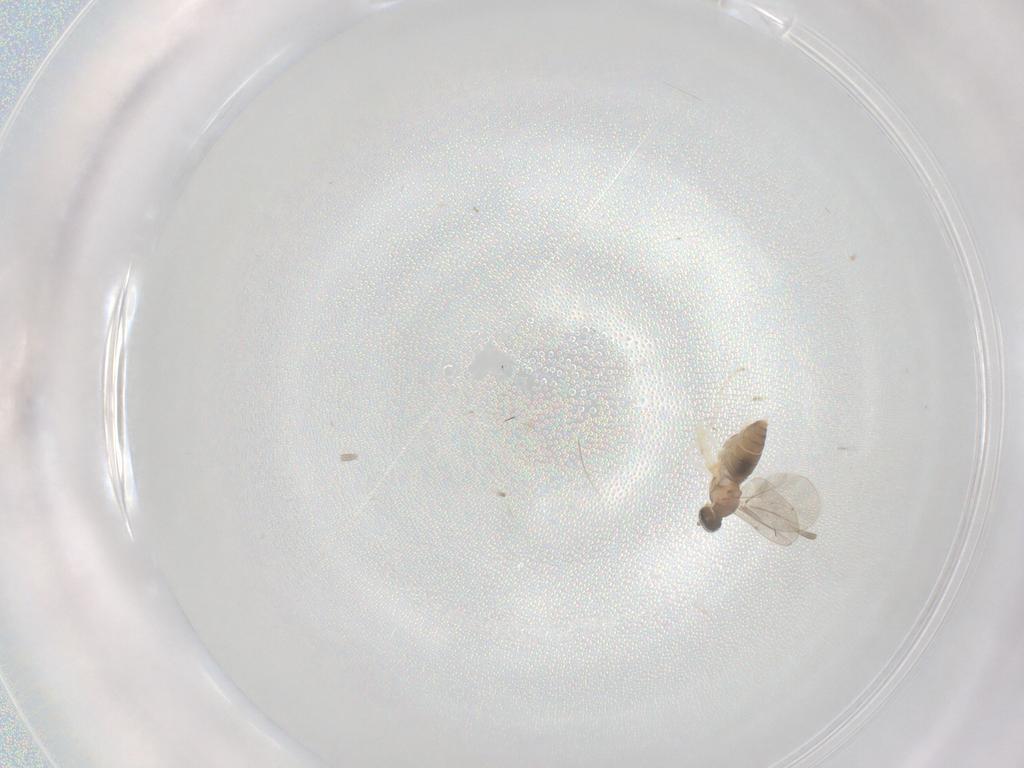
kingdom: Animalia
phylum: Arthropoda
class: Insecta
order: Diptera
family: Cecidomyiidae
